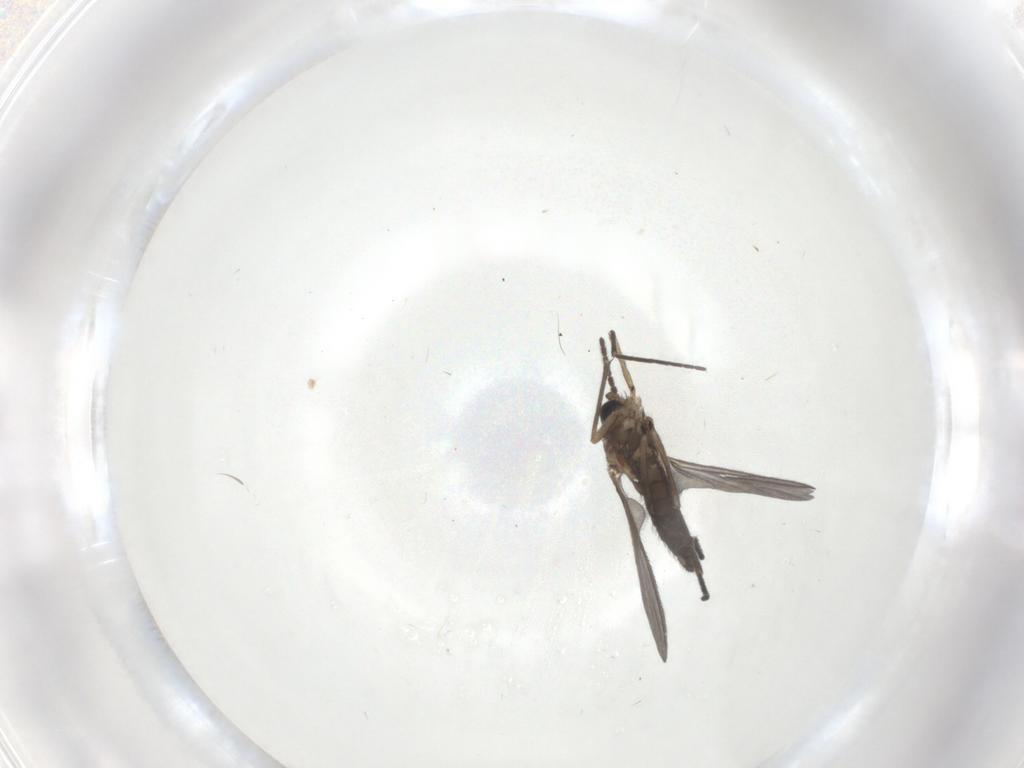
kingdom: Animalia
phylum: Arthropoda
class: Insecta
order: Diptera
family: Sciaridae
